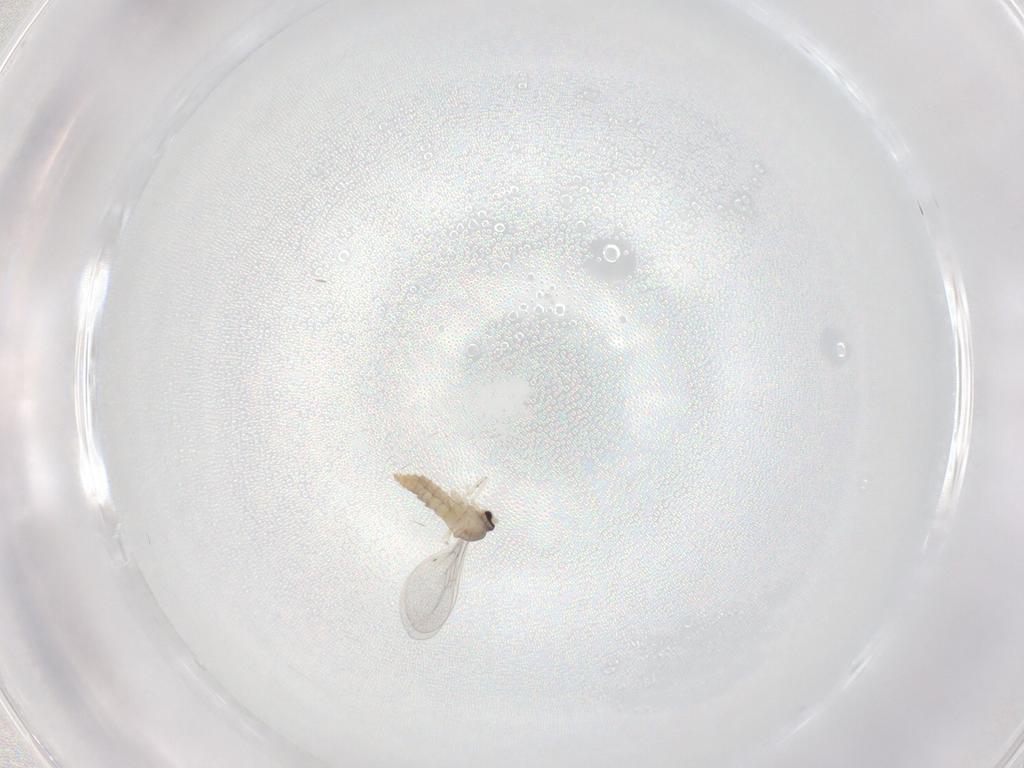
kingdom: Animalia
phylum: Arthropoda
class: Insecta
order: Diptera
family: Cecidomyiidae
